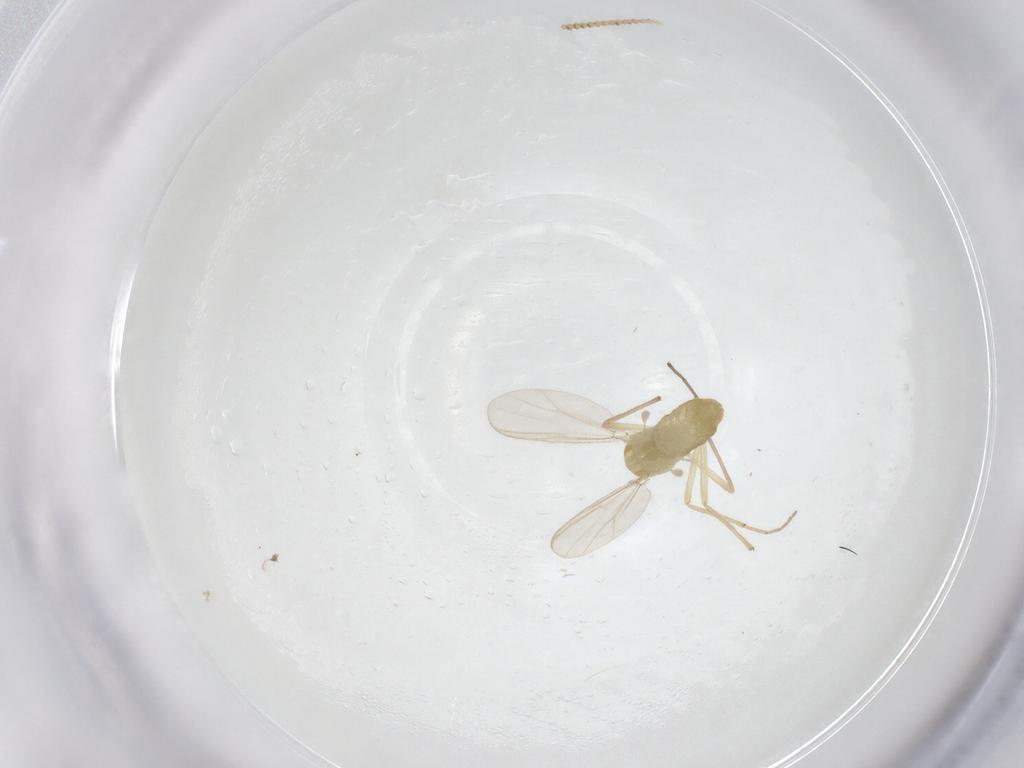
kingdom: Animalia
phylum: Arthropoda
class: Insecta
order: Diptera
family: Chironomidae
